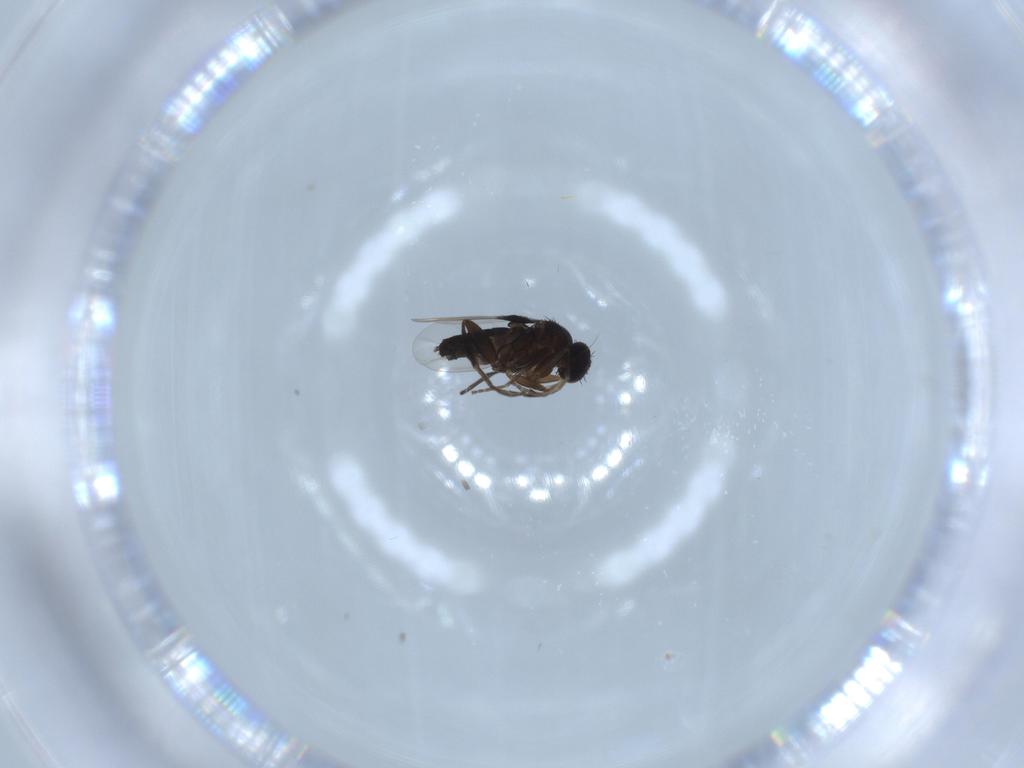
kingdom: Animalia
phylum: Arthropoda
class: Insecta
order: Diptera
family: Phoridae
